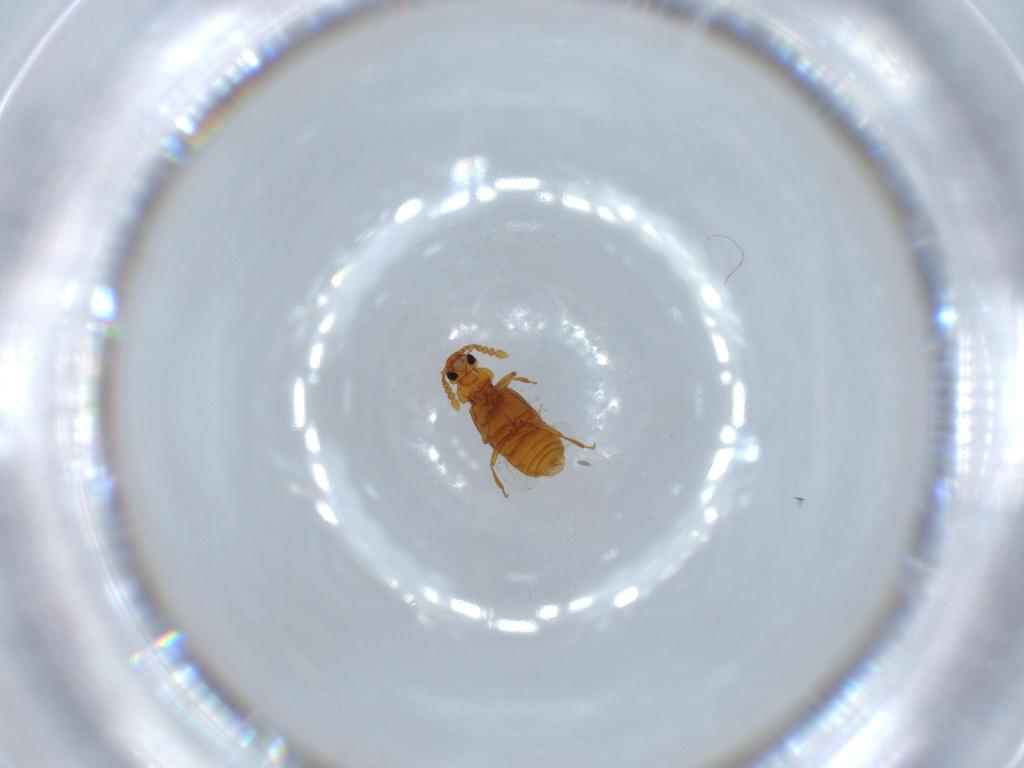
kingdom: Animalia
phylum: Arthropoda
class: Insecta
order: Coleoptera
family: Staphylinidae
